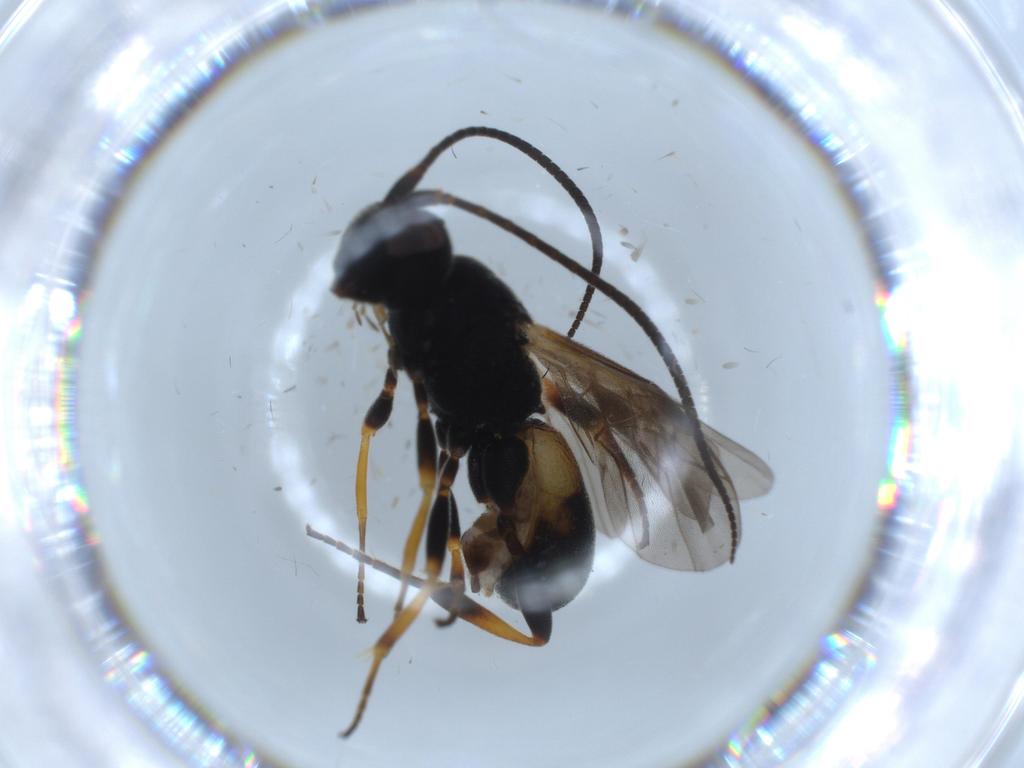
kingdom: Animalia
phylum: Arthropoda
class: Insecta
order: Hymenoptera
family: Braconidae
